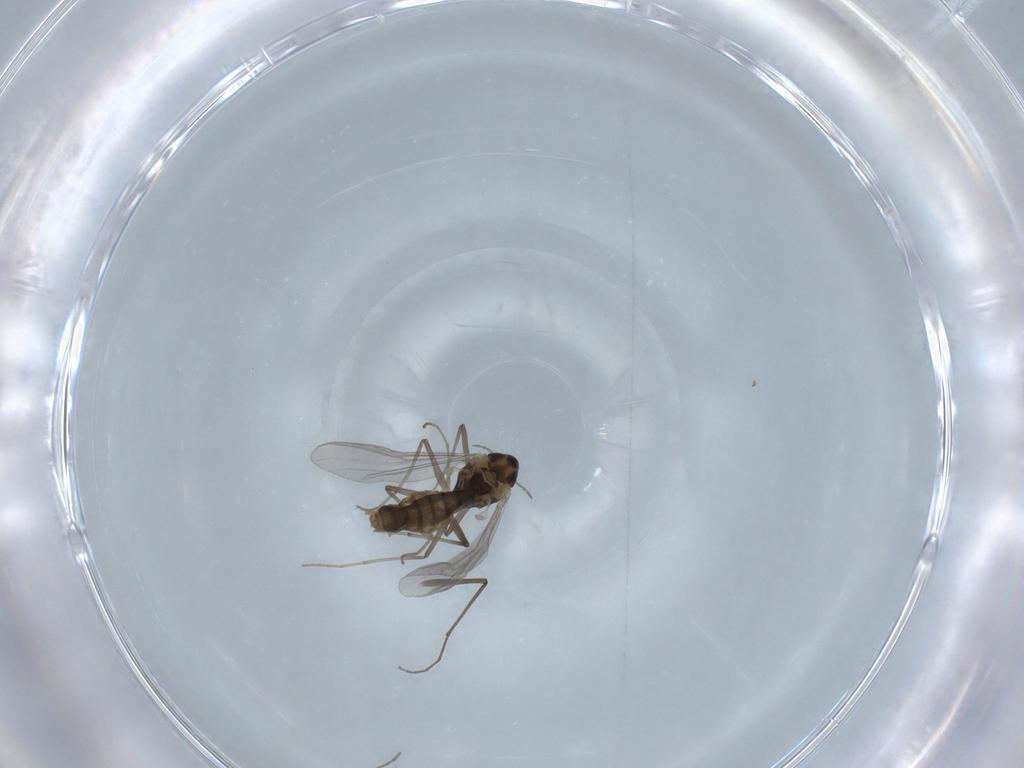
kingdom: Animalia
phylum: Arthropoda
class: Insecta
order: Diptera
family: Chironomidae
